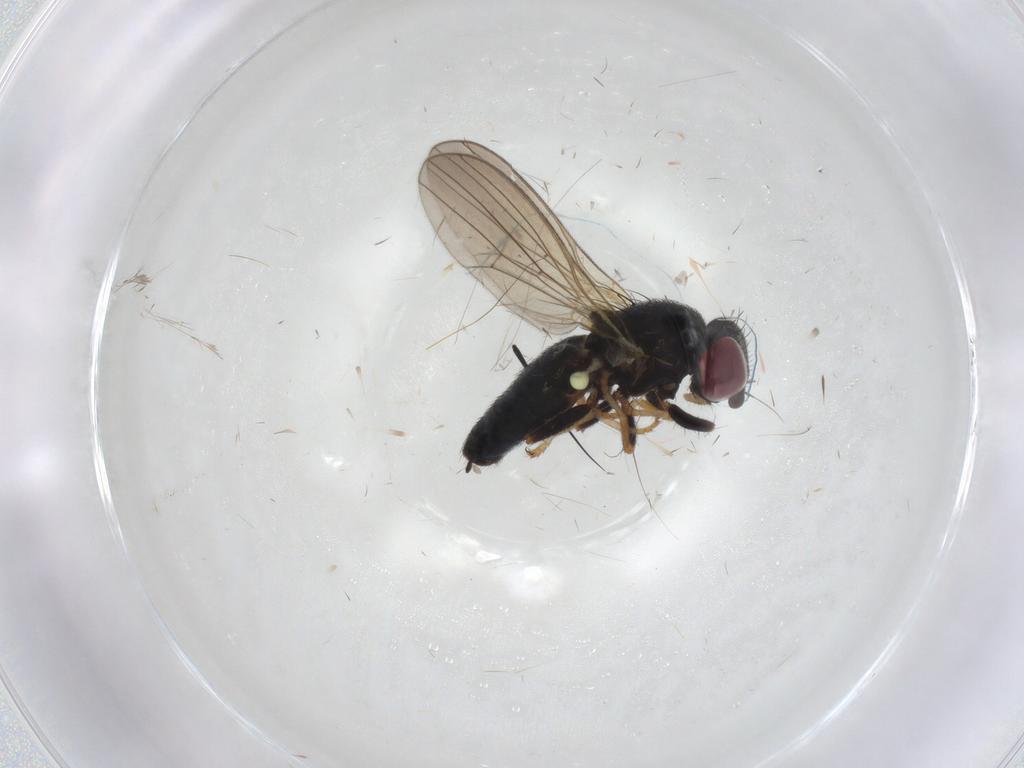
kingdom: Animalia
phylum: Arthropoda
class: Insecta
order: Diptera
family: Chamaemyiidae
